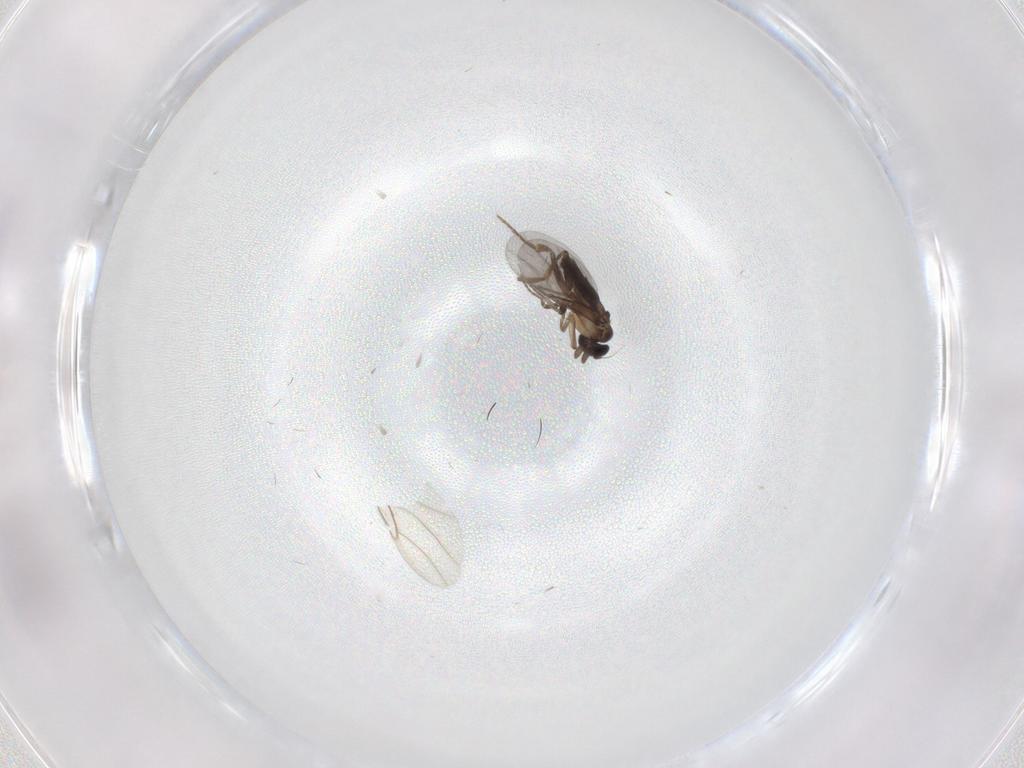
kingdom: Animalia
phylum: Arthropoda
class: Insecta
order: Diptera
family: Phoridae
